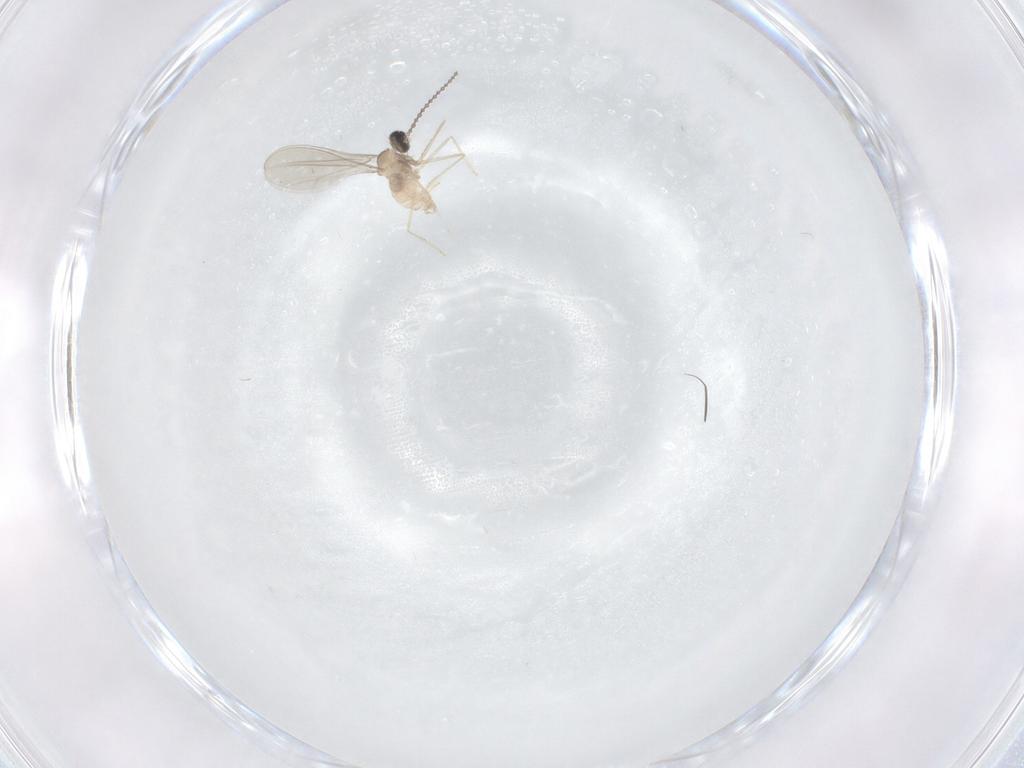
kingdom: Animalia
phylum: Arthropoda
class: Insecta
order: Diptera
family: Cecidomyiidae
